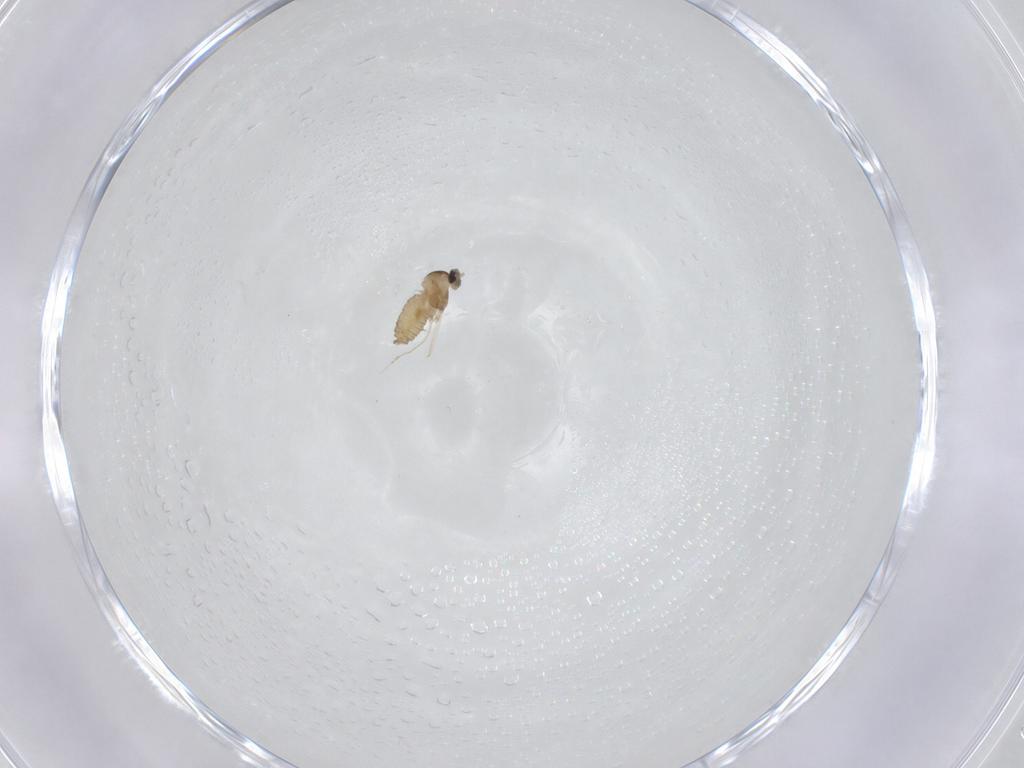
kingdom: Animalia
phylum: Arthropoda
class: Insecta
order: Diptera
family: Cecidomyiidae
